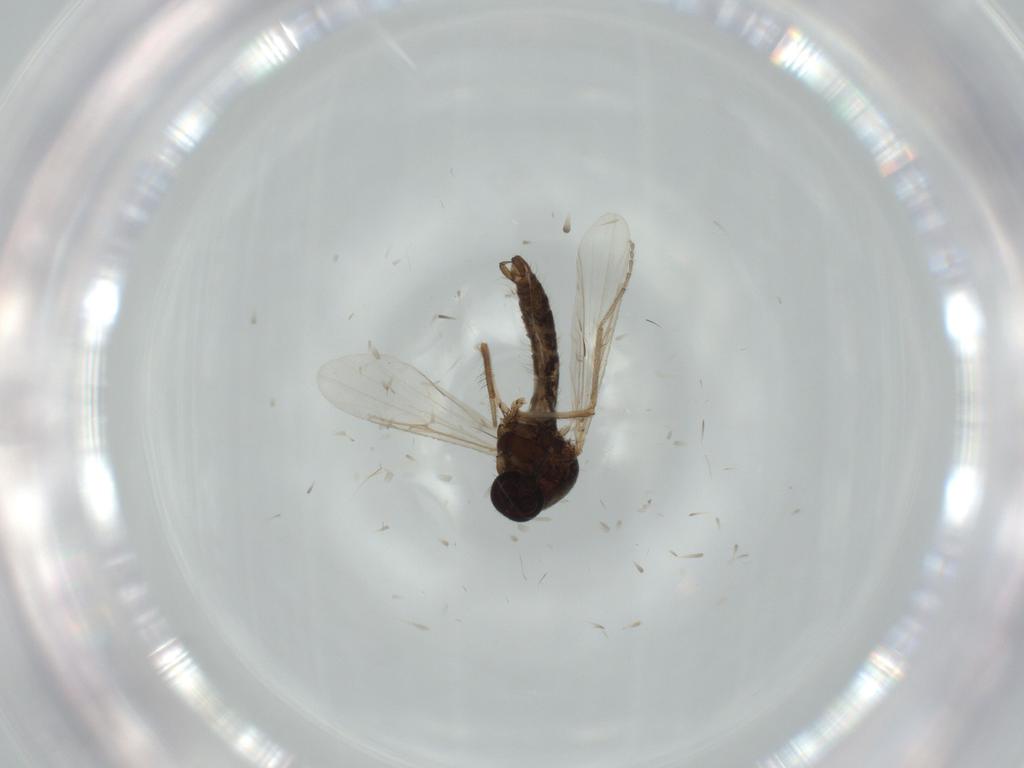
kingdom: Animalia
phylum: Arthropoda
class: Insecta
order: Diptera
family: Ceratopogonidae
